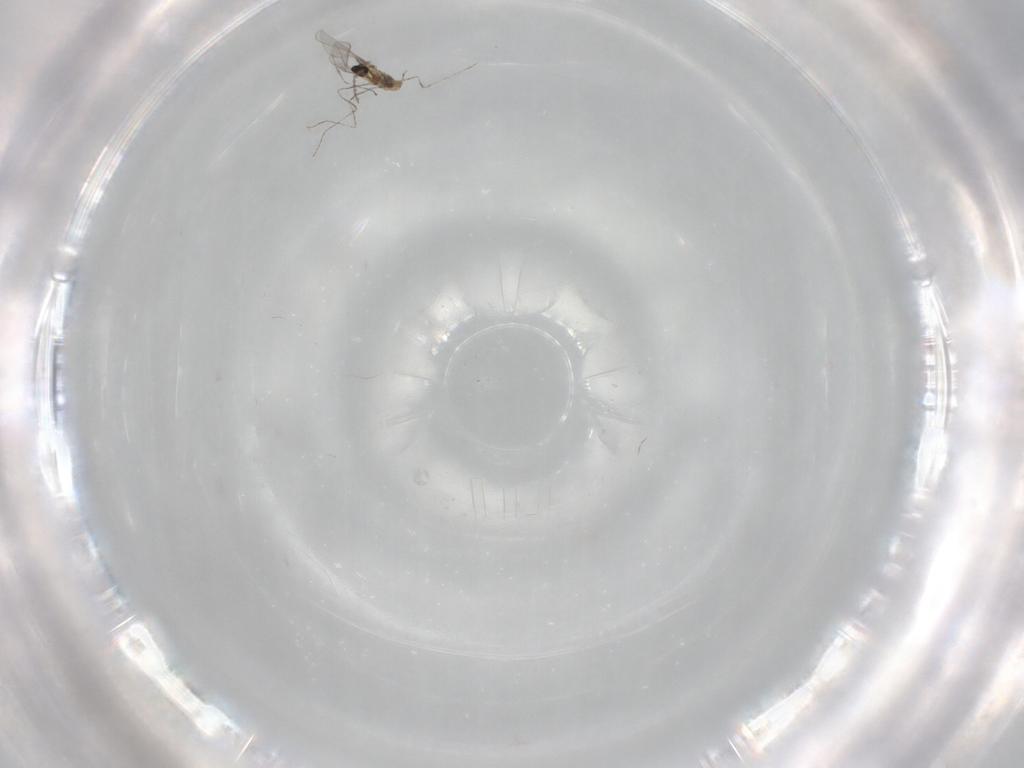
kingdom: Animalia
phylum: Arthropoda
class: Insecta
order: Diptera
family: Cecidomyiidae
